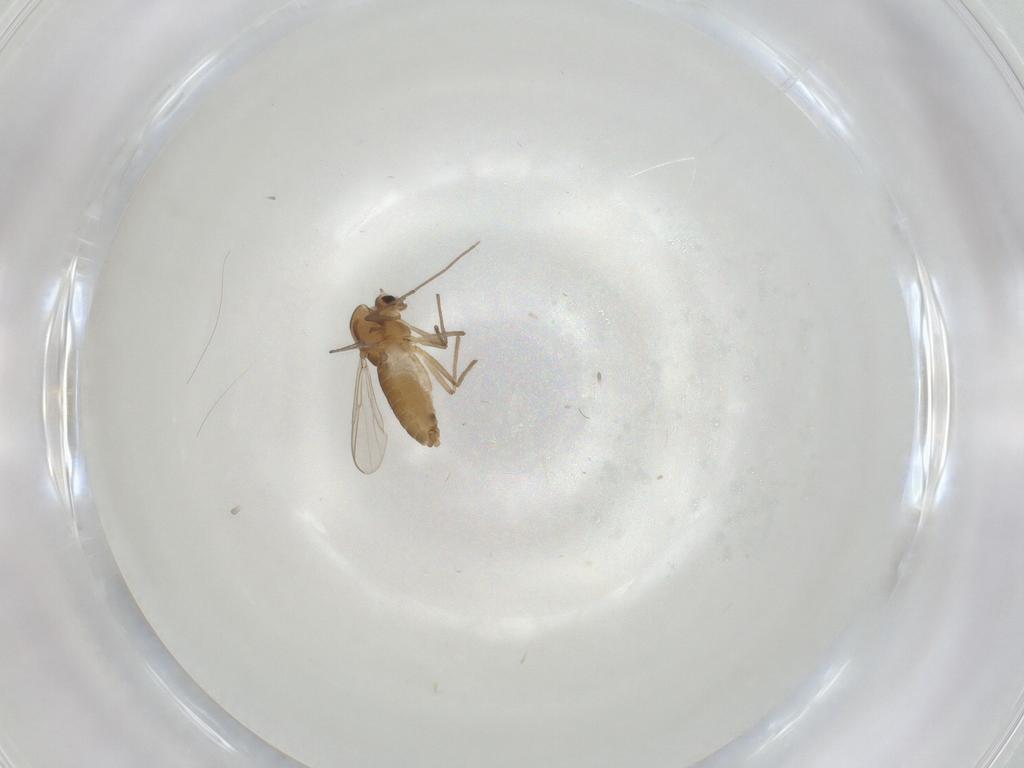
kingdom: Animalia
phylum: Arthropoda
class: Insecta
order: Diptera
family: Chironomidae
